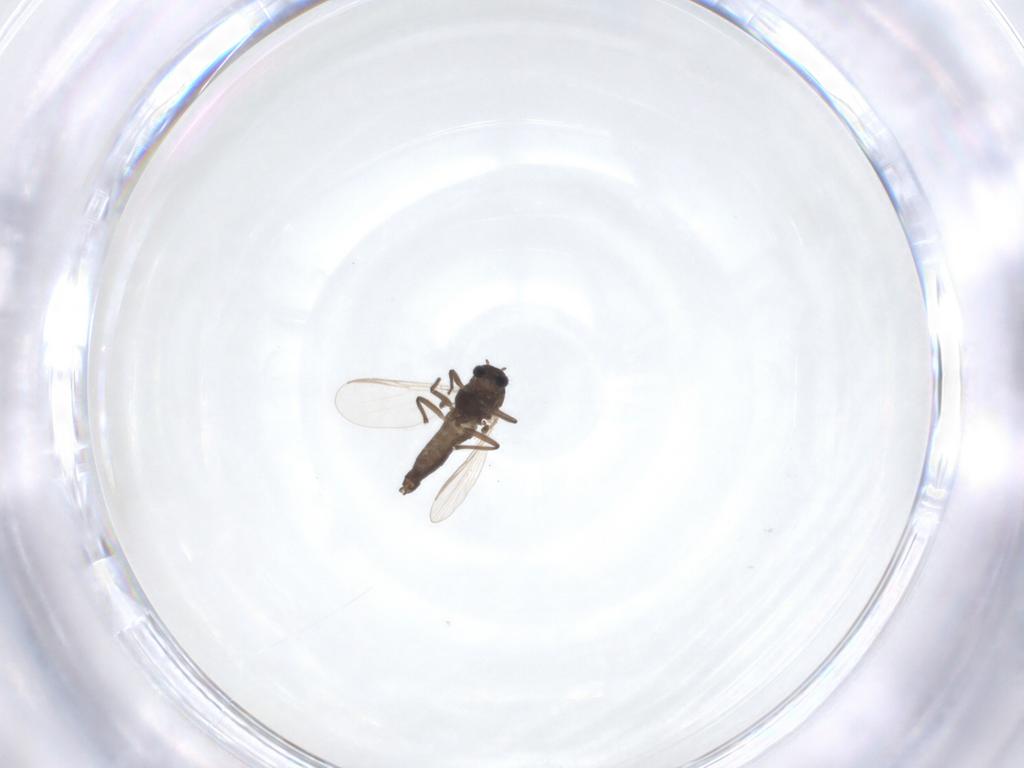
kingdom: Animalia
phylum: Arthropoda
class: Insecta
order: Diptera
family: Chironomidae
